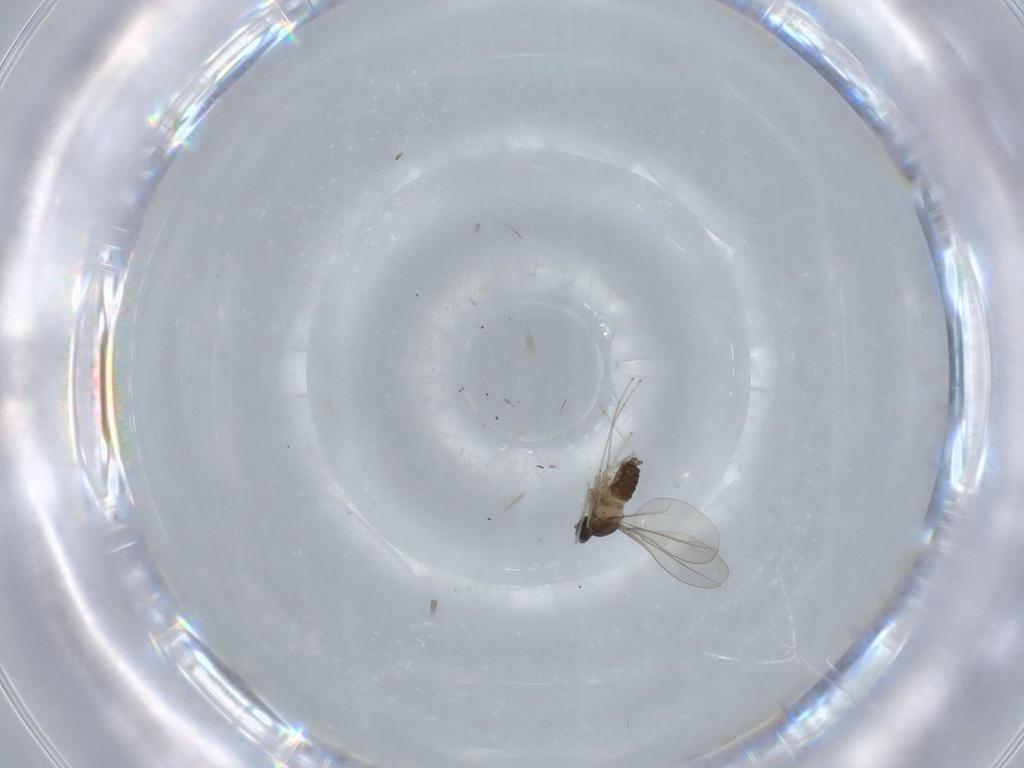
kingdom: Animalia
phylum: Arthropoda
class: Insecta
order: Diptera
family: Cecidomyiidae
